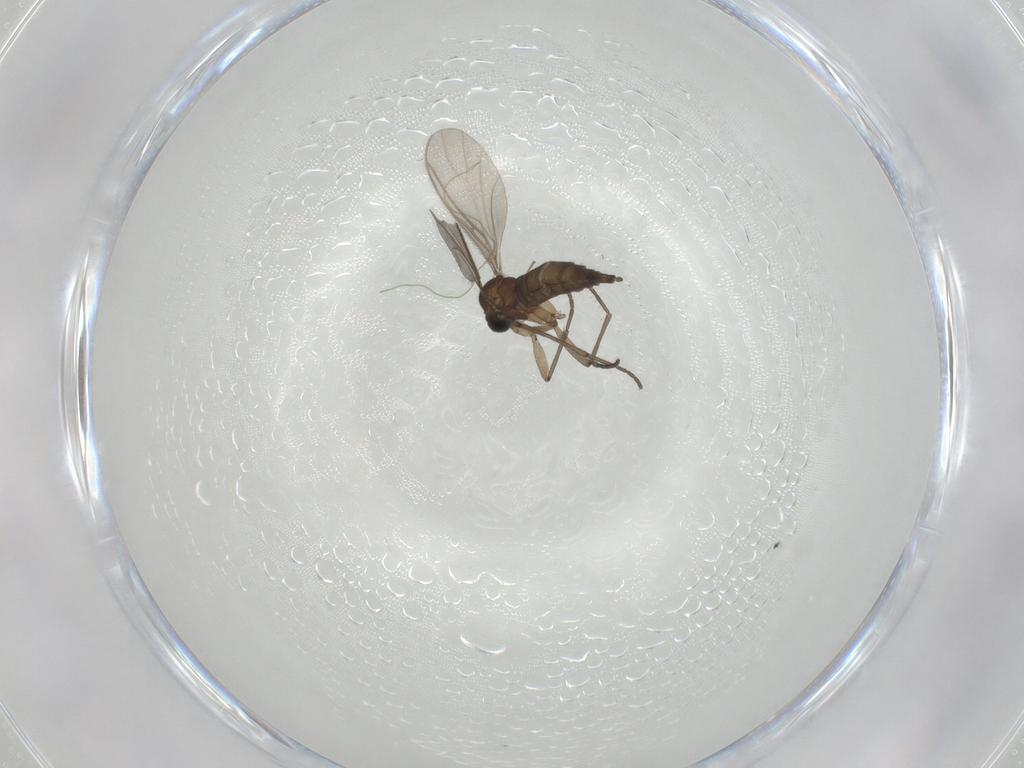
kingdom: Animalia
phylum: Arthropoda
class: Insecta
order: Diptera
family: Sciaridae
